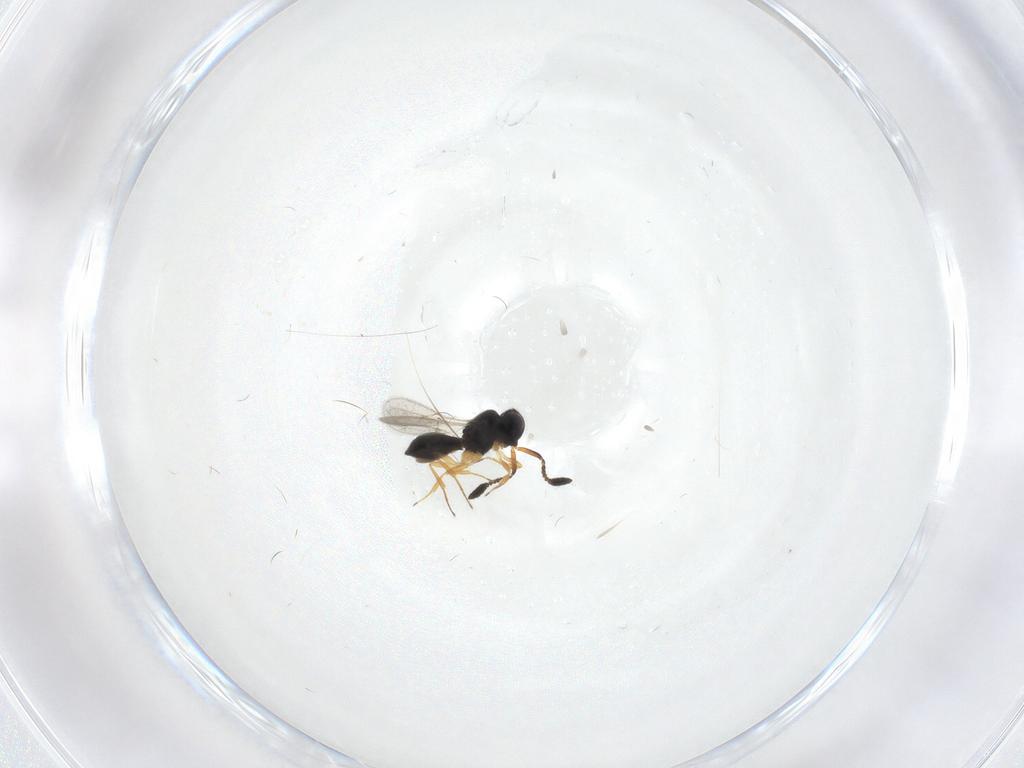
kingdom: Animalia
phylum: Arthropoda
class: Insecta
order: Hymenoptera
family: Scelionidae
